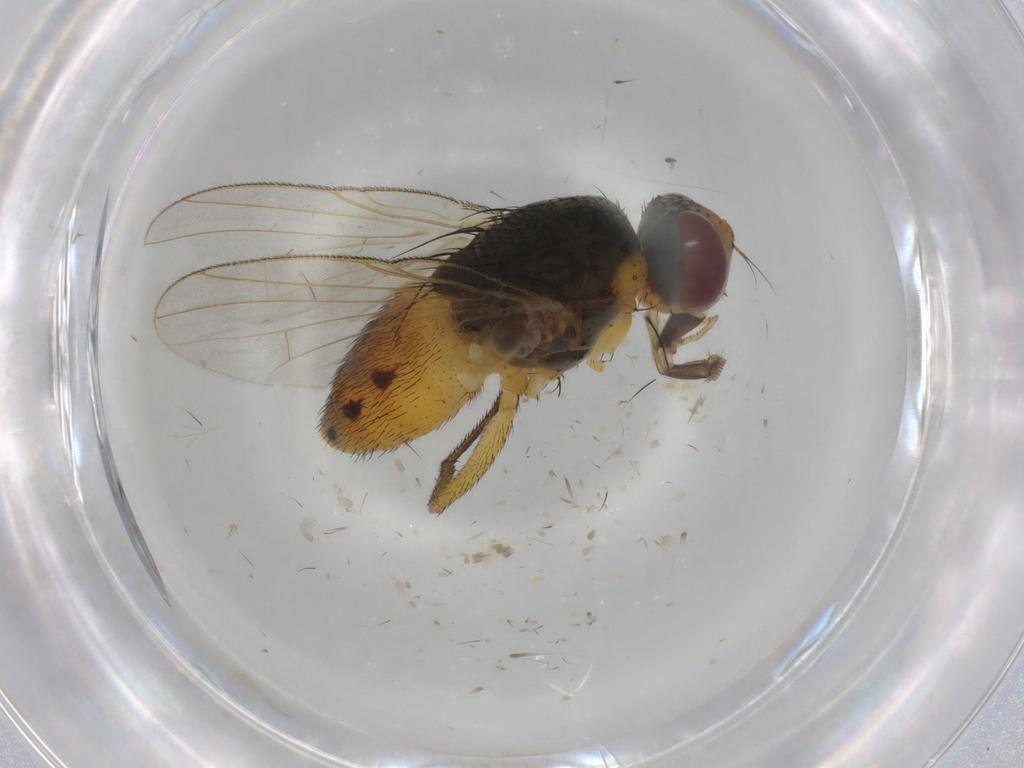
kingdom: Animalia
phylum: Arthropoda
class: Insecta
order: Diptera
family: Muscidae
